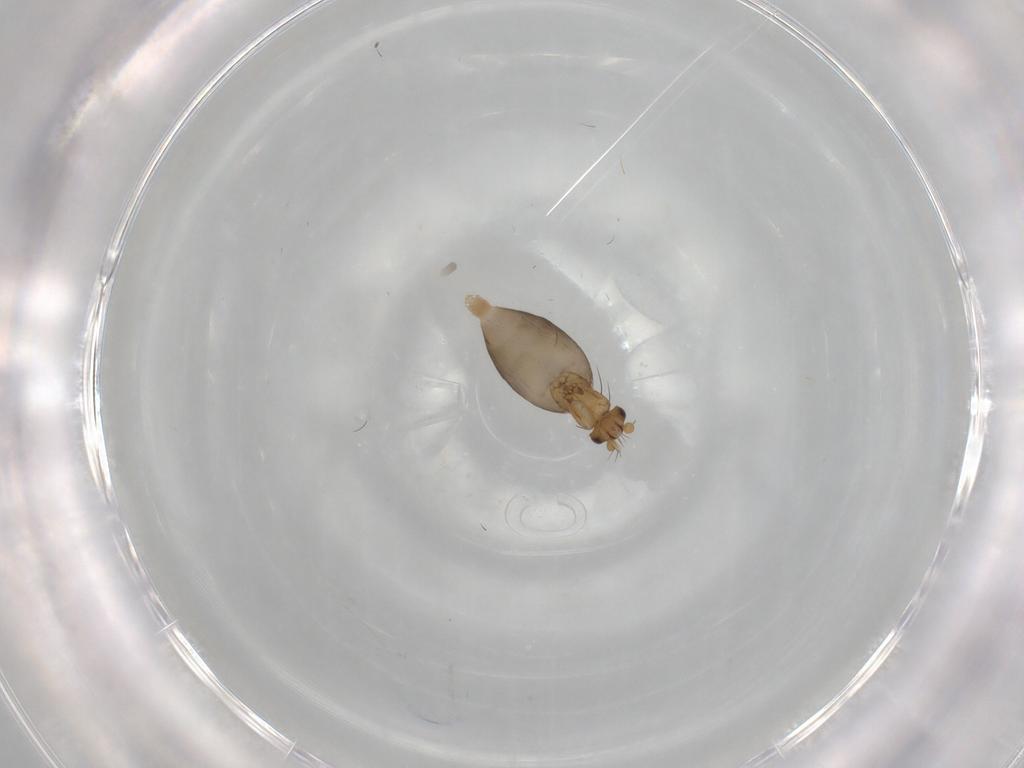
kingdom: Animalia
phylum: Arthropoda
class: Insecta
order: Diptera
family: Phoridae
